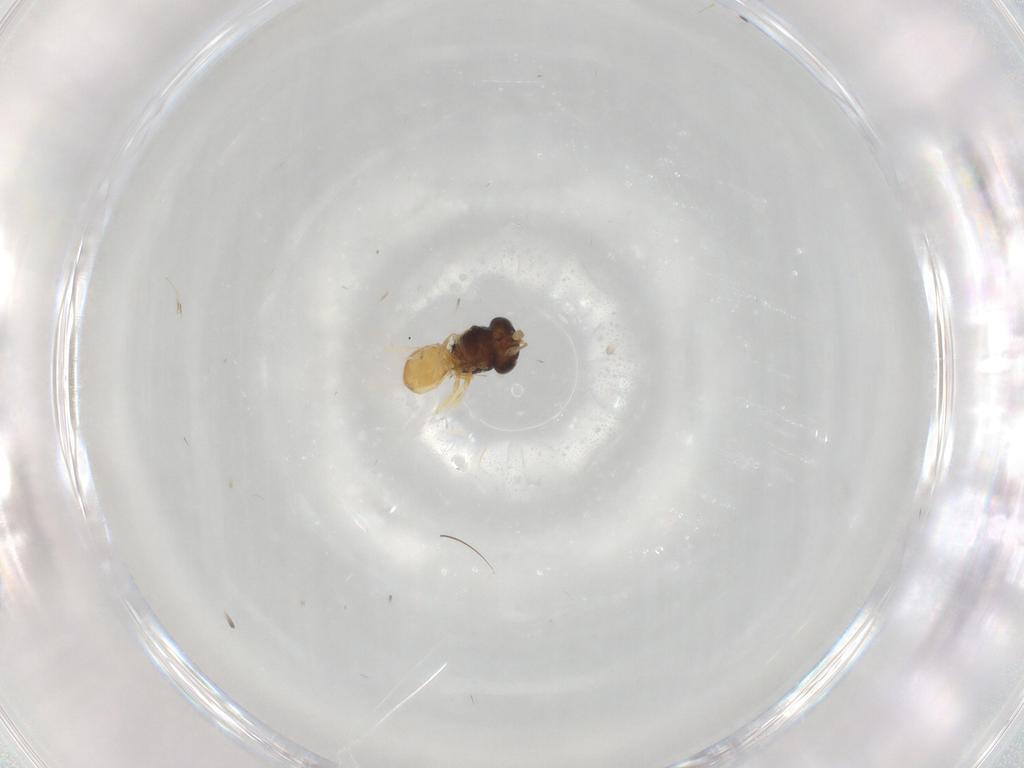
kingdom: Animalia
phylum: Arthropoda
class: Insecta
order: Hymenoptera
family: Scelionidae
